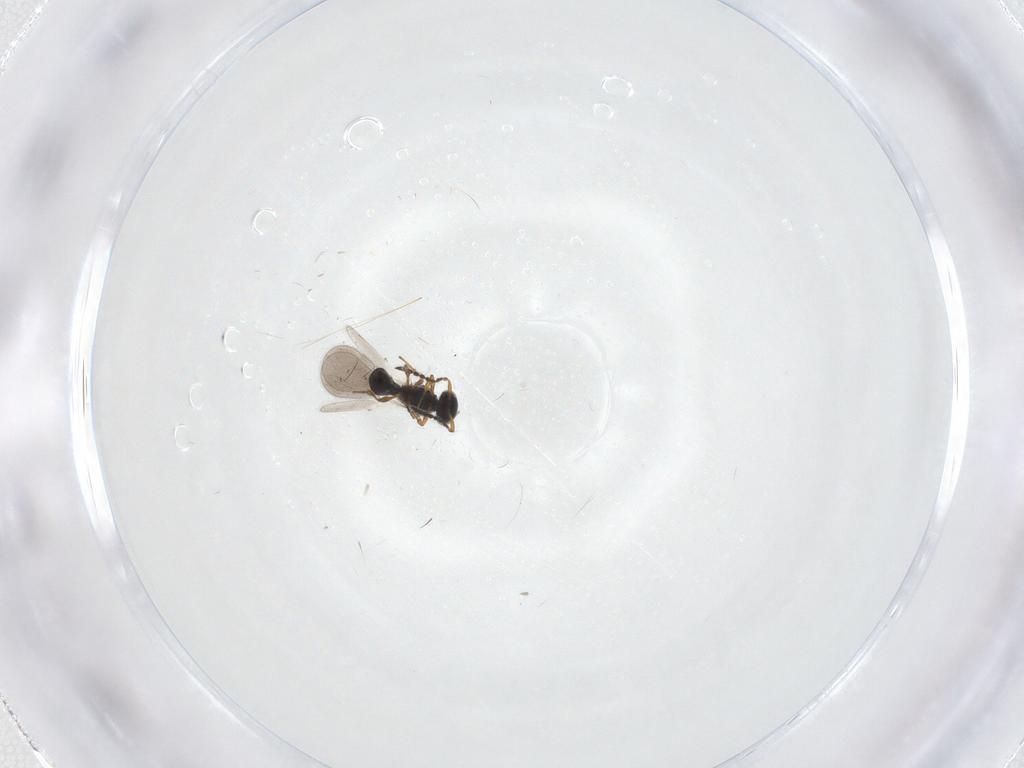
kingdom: Animalia
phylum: Arthropoda
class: Insecta
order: Hymenoptera
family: Platygastridae
